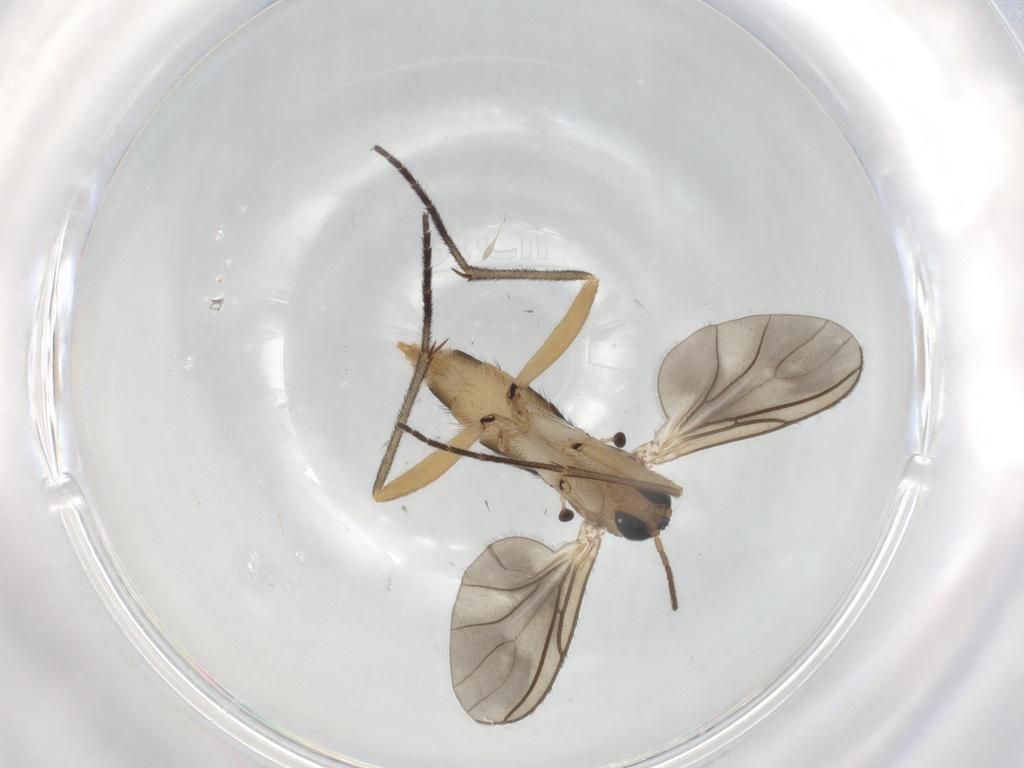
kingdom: Animalia
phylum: Arthropoda
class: Insecta
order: Diptera
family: Sciaridae
